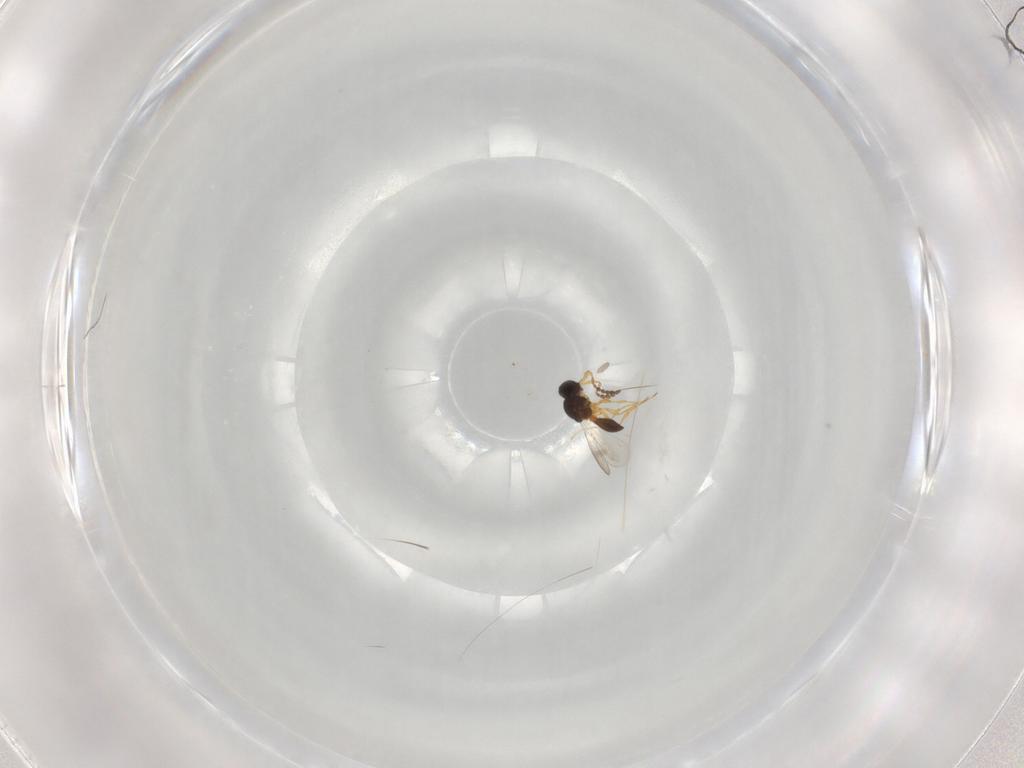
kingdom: Animalia
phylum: Arthropoda
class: Insecta
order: Hymenoptera
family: Platygastridae
